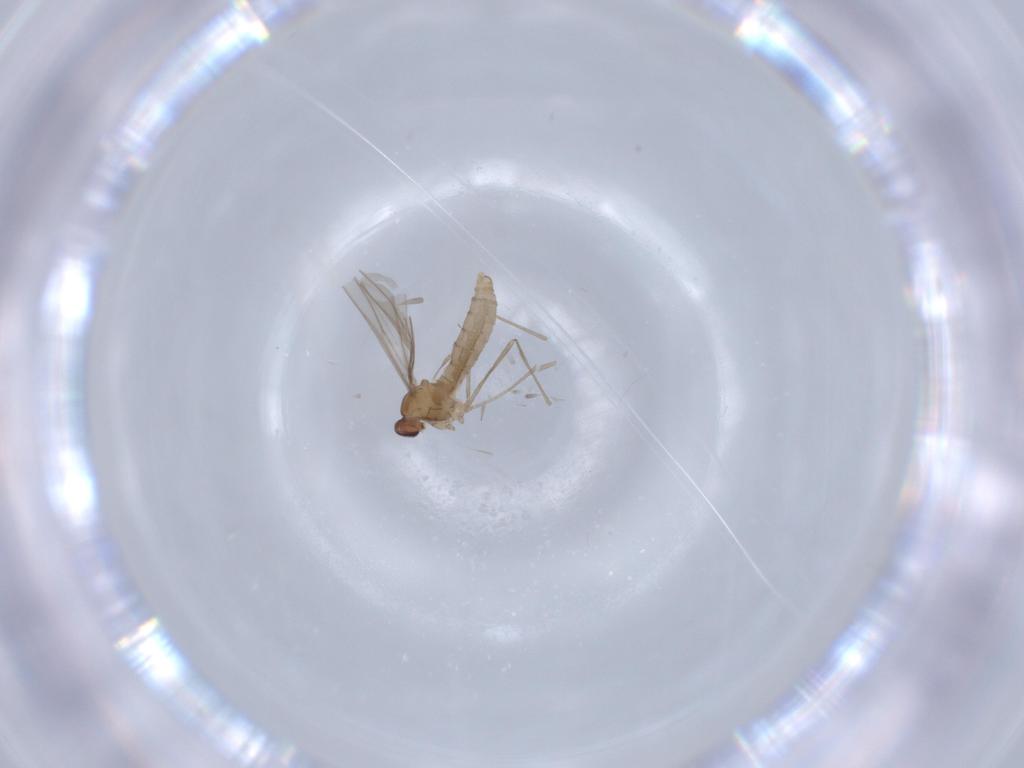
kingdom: Animalia
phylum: Arthropoda
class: Insecta
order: Diptera
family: Cecidomyiidae
